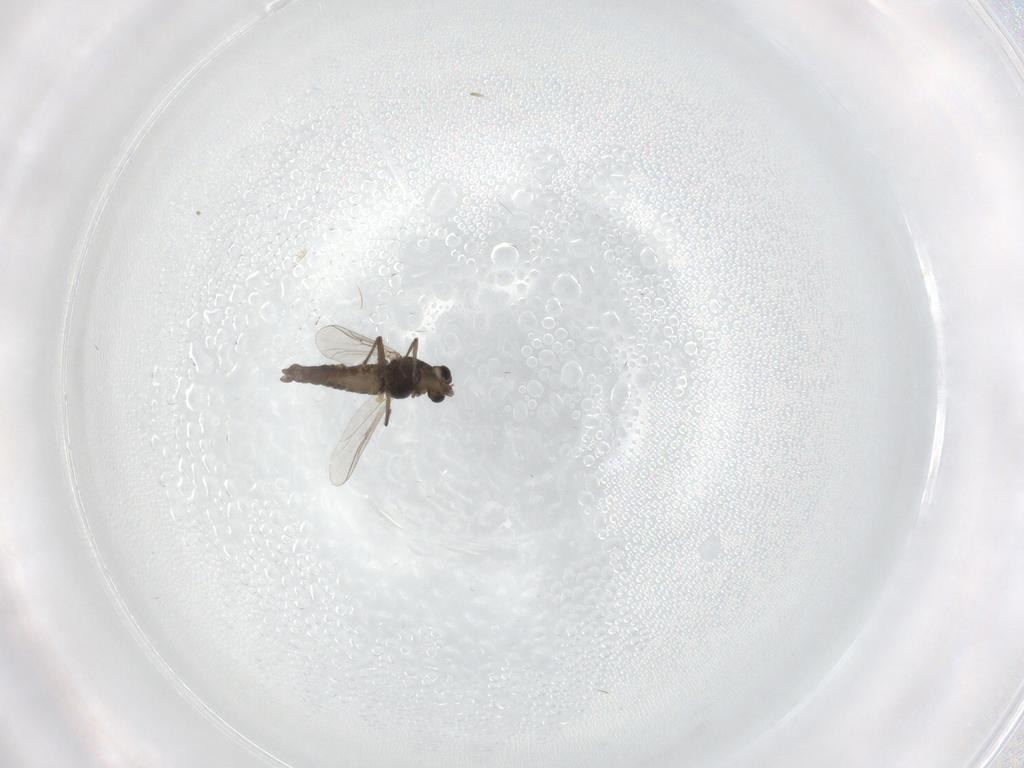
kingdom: Animalia
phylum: Arthropoda
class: Insecta
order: Diptera
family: Chironomidae
